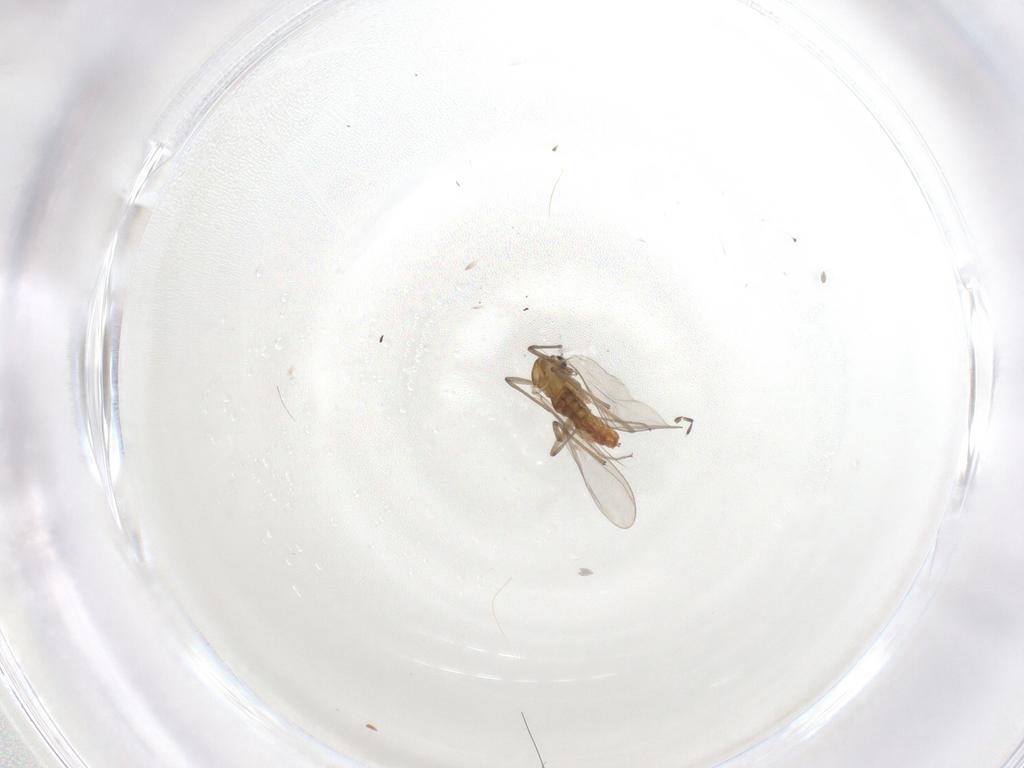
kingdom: Animalia
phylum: Arthropoda
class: Insecta
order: Diptera
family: Chironomidae
